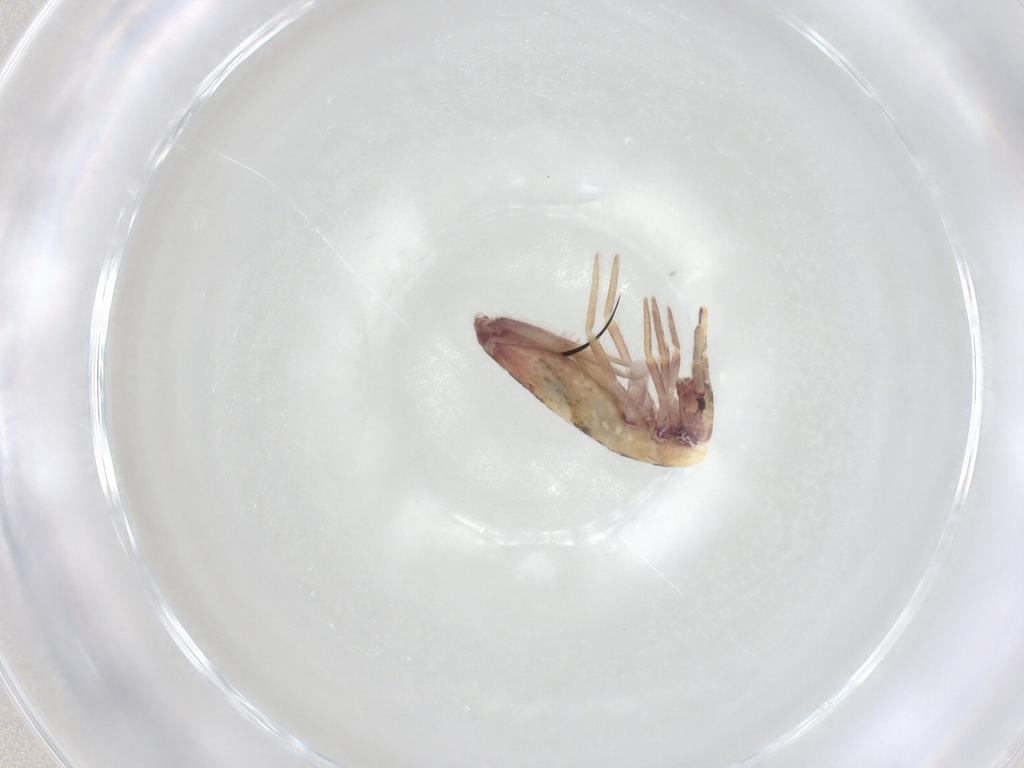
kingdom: Animalia
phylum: Arthropoda
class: Collembola
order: Entomobryomorpha
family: Entomobryidae
